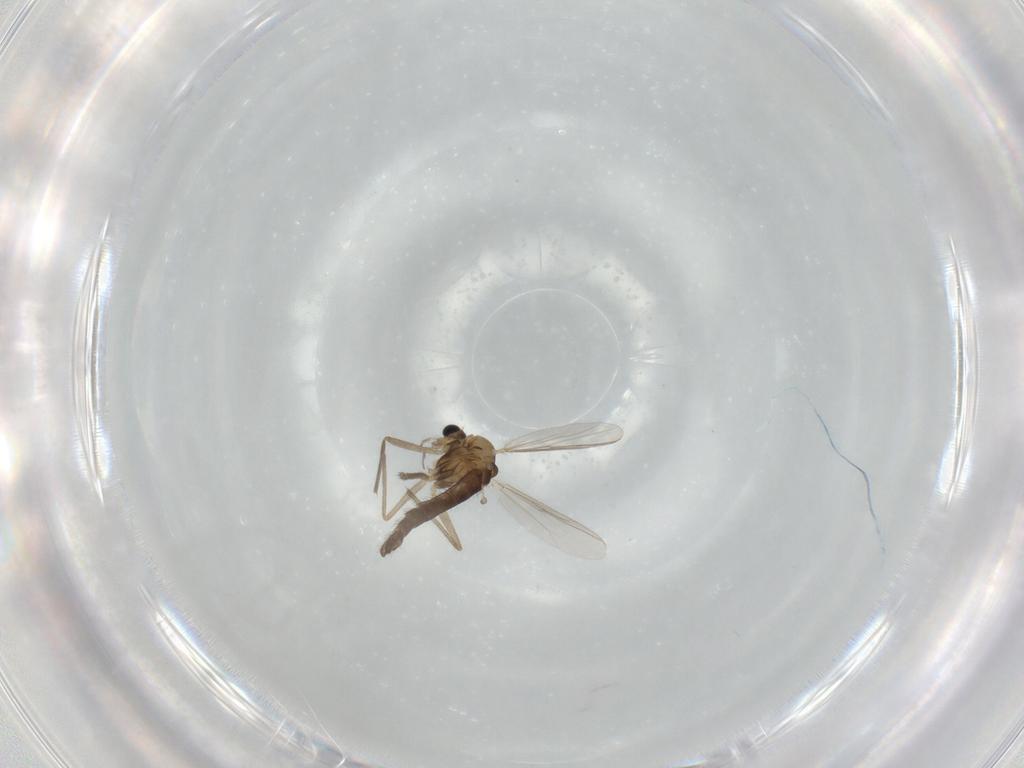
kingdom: Animalia
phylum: Arthropoda
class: Insecta
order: Diptera
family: Chironomidae
